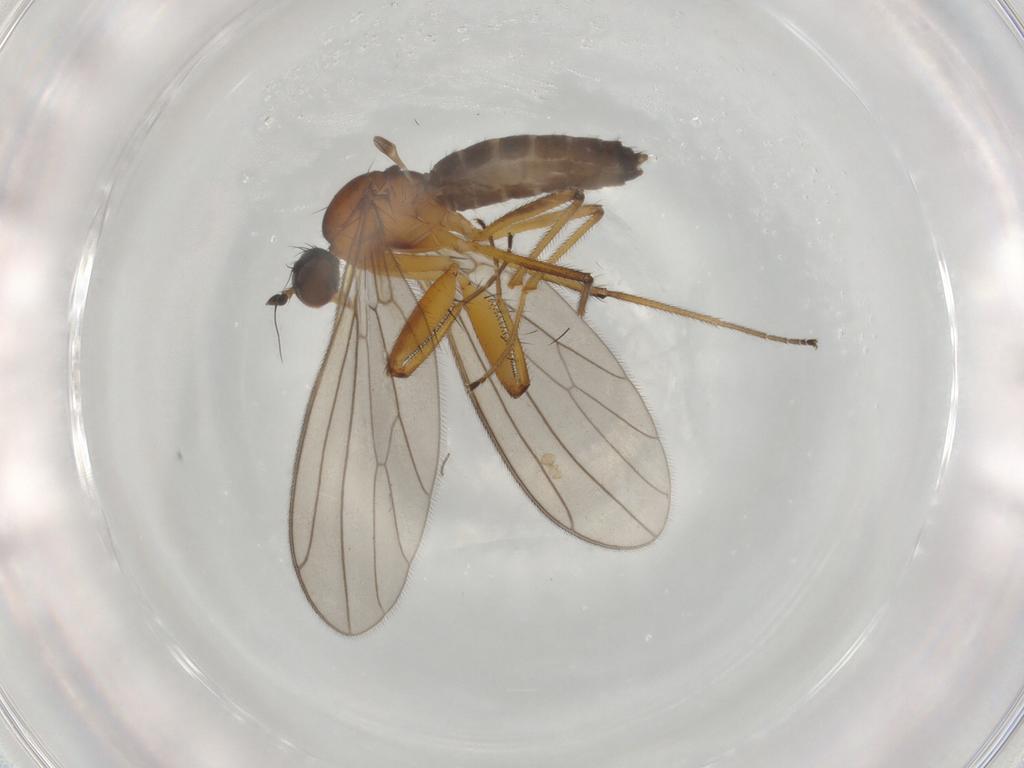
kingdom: Animalia
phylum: Arthropoda
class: Insecta
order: Diptera
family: Empididae
